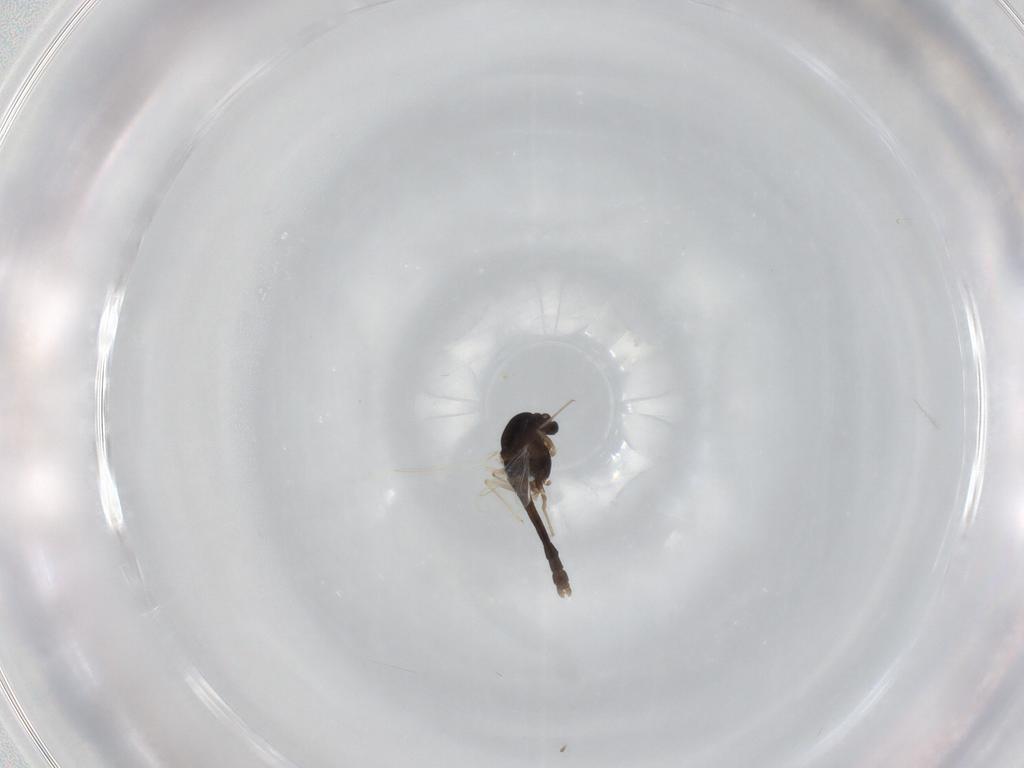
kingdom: Animalia
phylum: Arthropoda
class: Insecta
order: Diptera
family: Chironomidae
